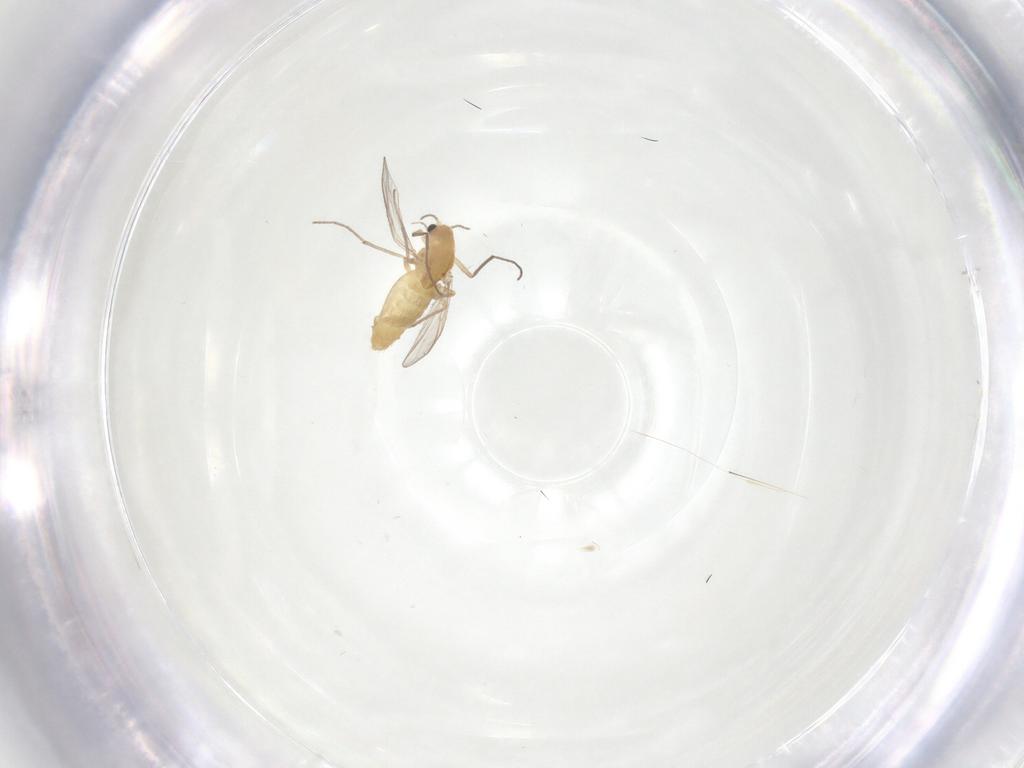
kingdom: Animalia
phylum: Arthropoda
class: Insecta
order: Diptera
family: Chironomidae
